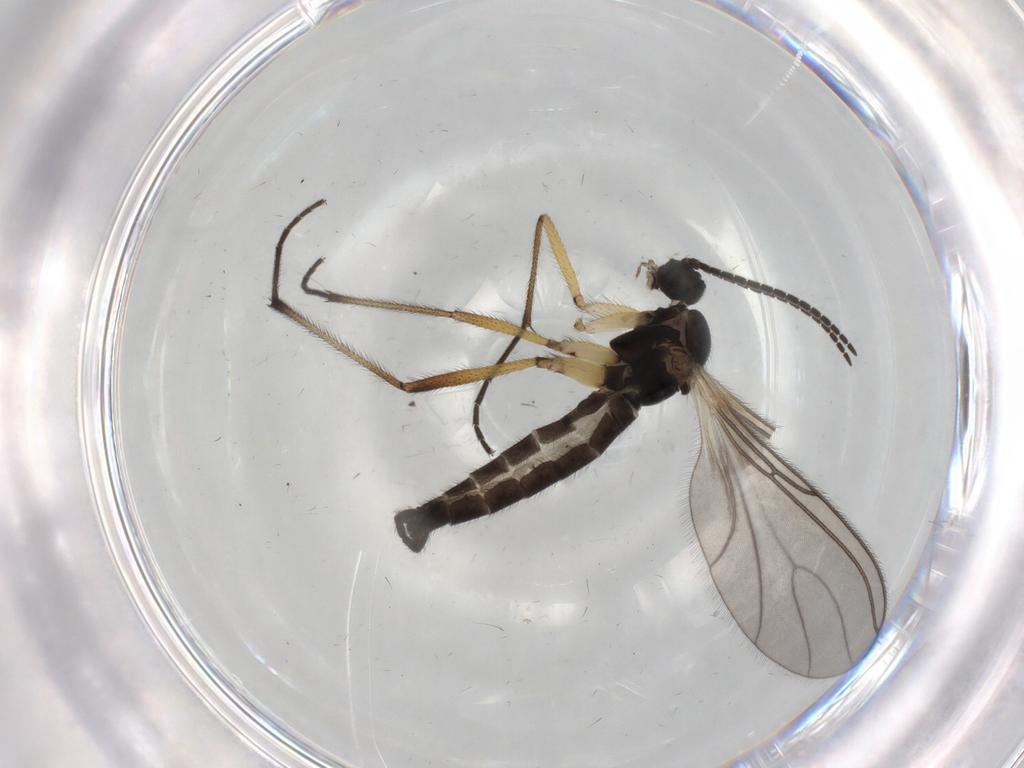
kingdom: Animalia
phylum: Arthropoda
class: Insecta
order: Diptera
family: Sciaridae
